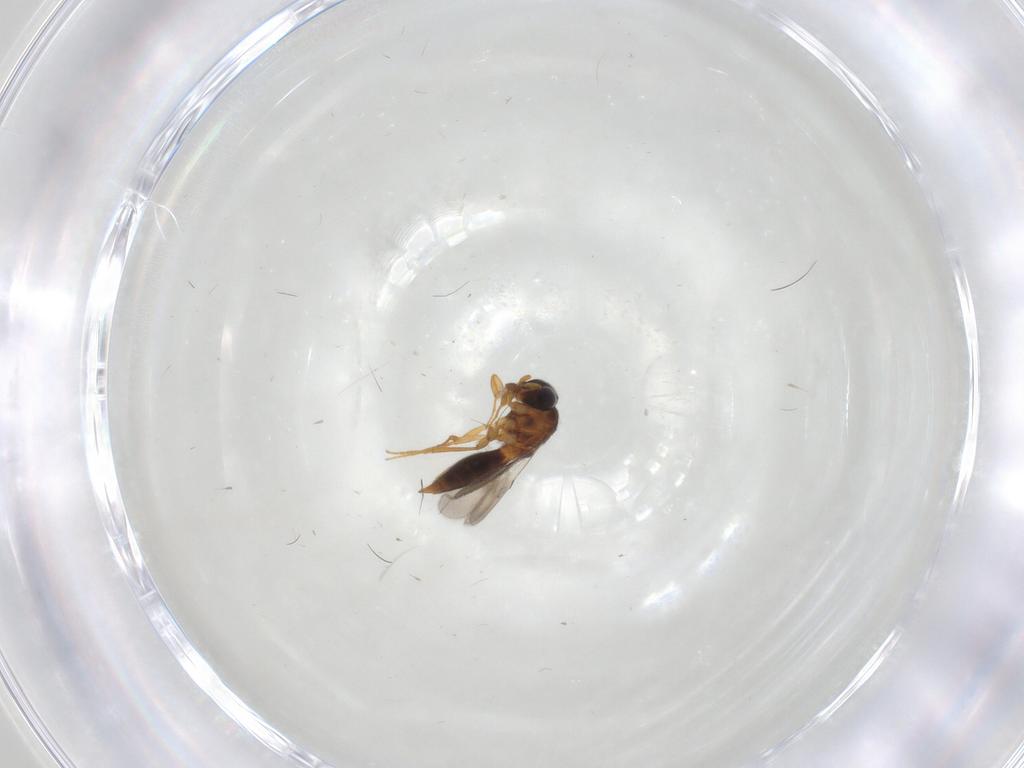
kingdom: Animalia
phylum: Arthropoda
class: Insecta
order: Hymenoptera
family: Scelionidae
